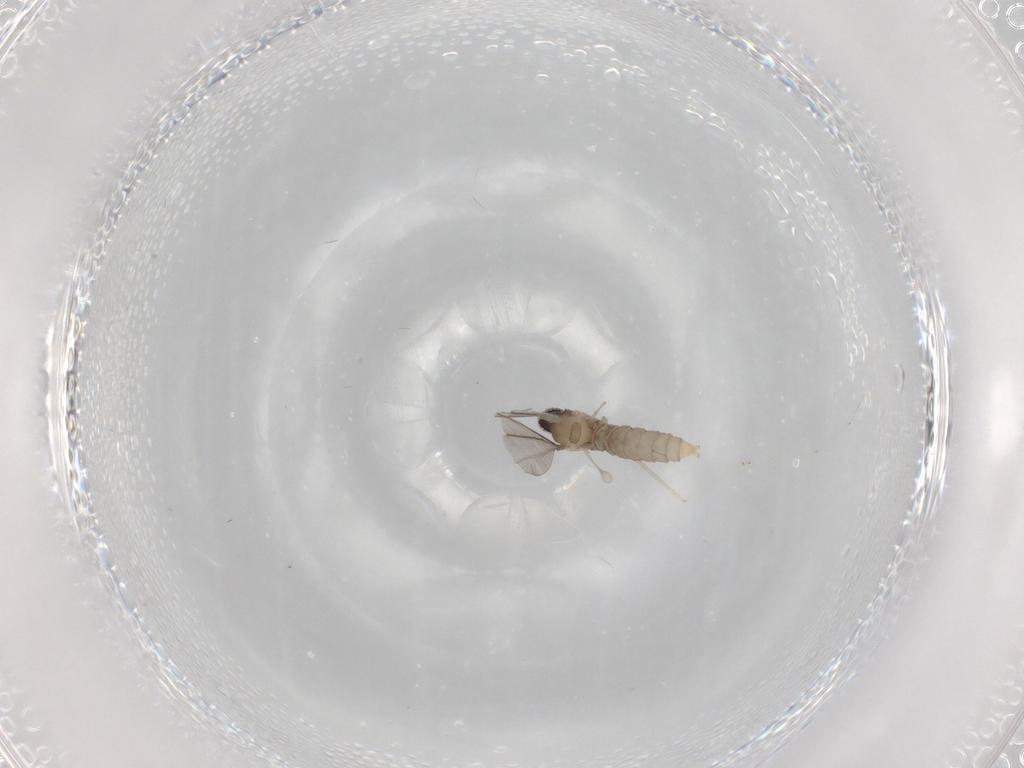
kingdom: Animalia
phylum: Arthropoda
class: Insecta
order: Diptera
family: Cecidomyiidae
